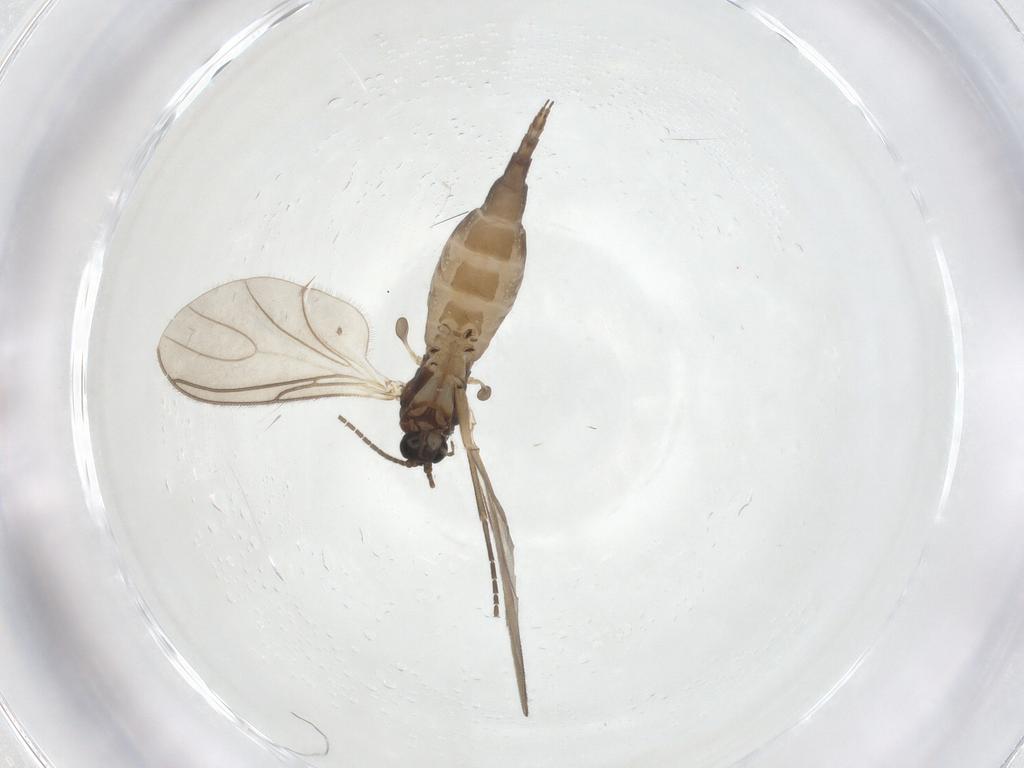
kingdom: Animalia
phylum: Arthropoda
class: Insecta
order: Diptera
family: Sciaridae
